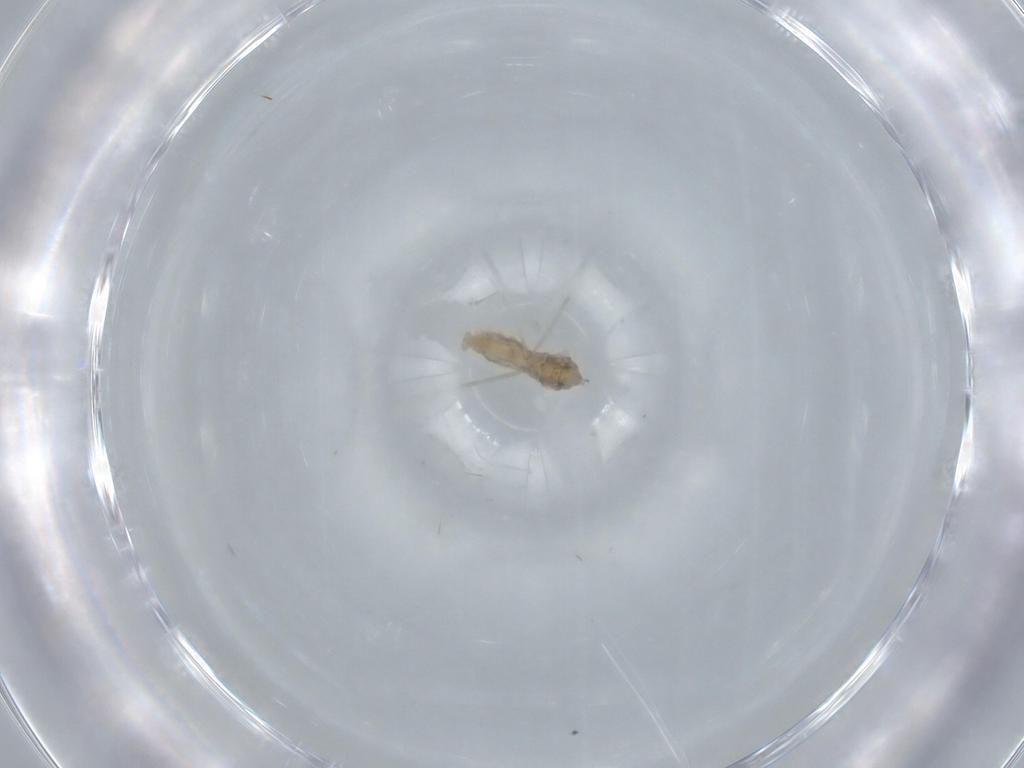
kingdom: Animalia
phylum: Arthropoda
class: Insecta
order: Diptera
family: Cecidomyiidae
